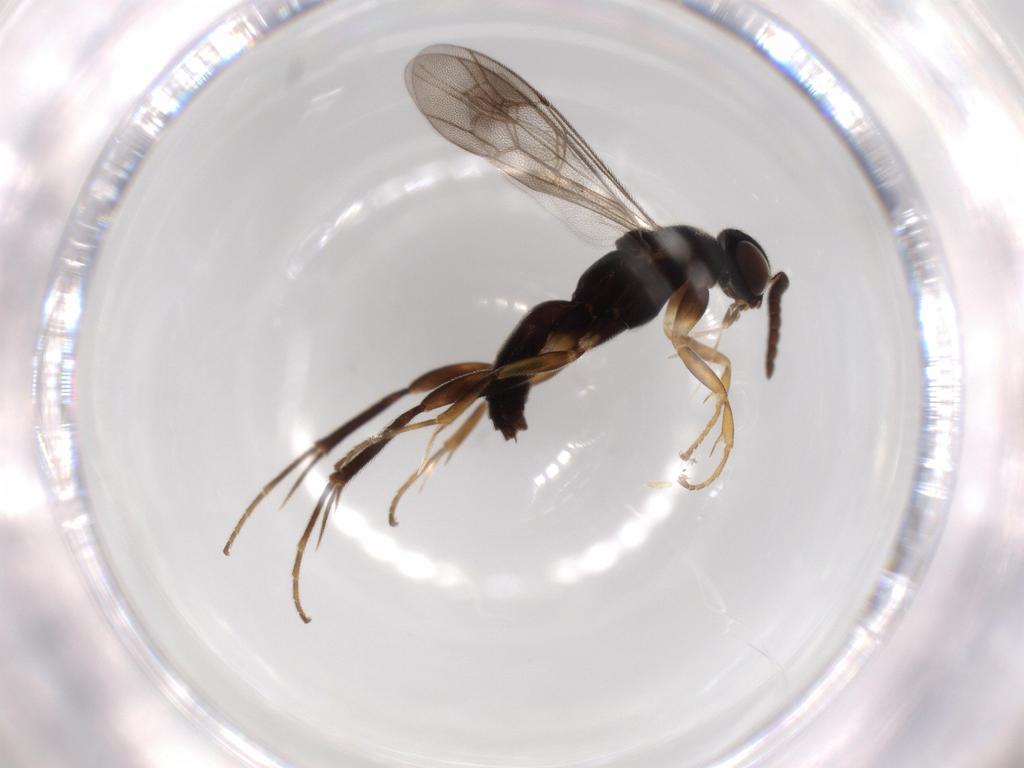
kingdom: Animalia
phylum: Arthropoda
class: Insecta
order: Hymenoptera
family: Pompilidae
